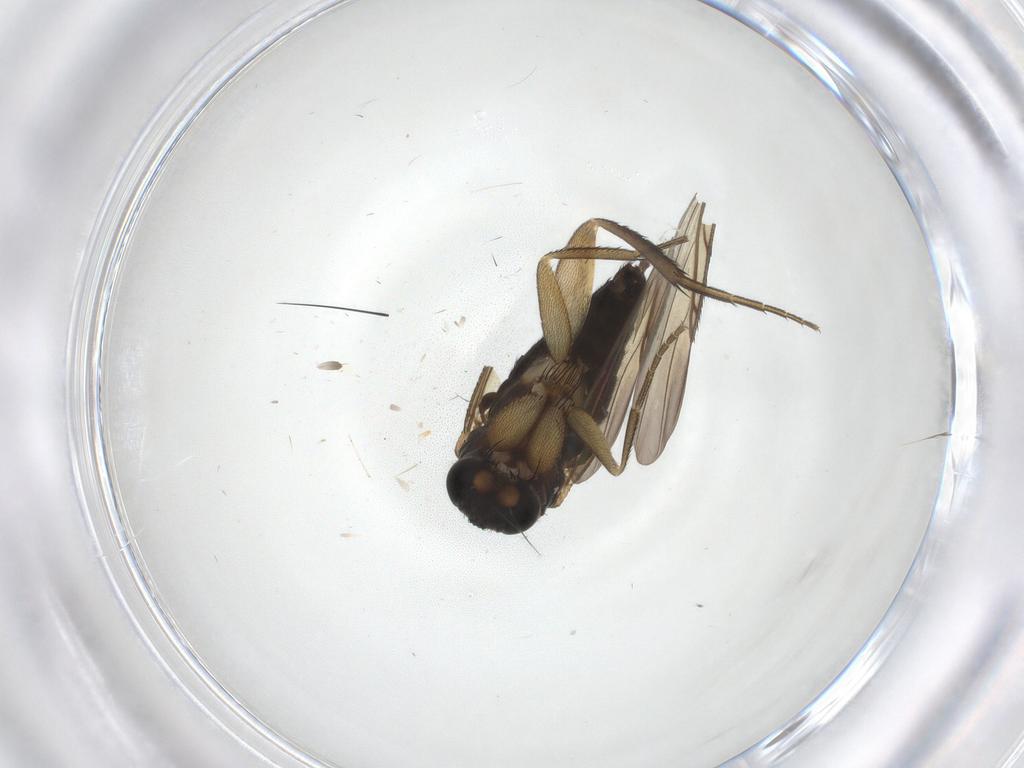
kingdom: Animalia
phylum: Arthropoda
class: Insecta
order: Diptera
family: Phoridae
